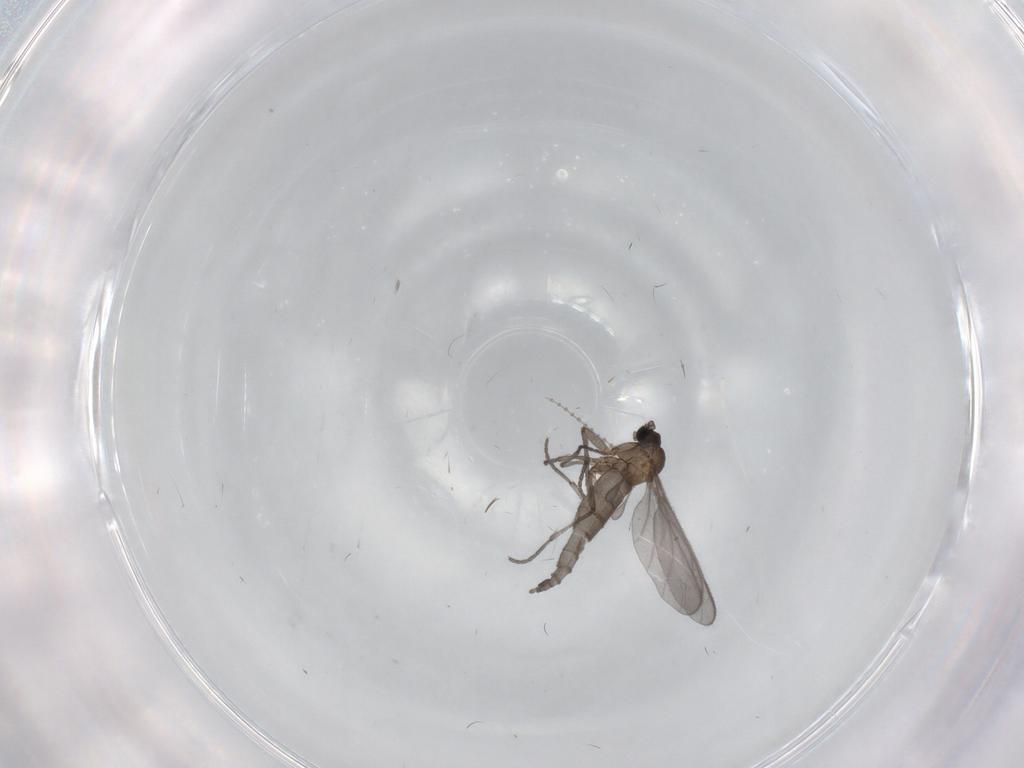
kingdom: Animalia
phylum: Arthropoda
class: Insecta
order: Diptera
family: Sciaridae
